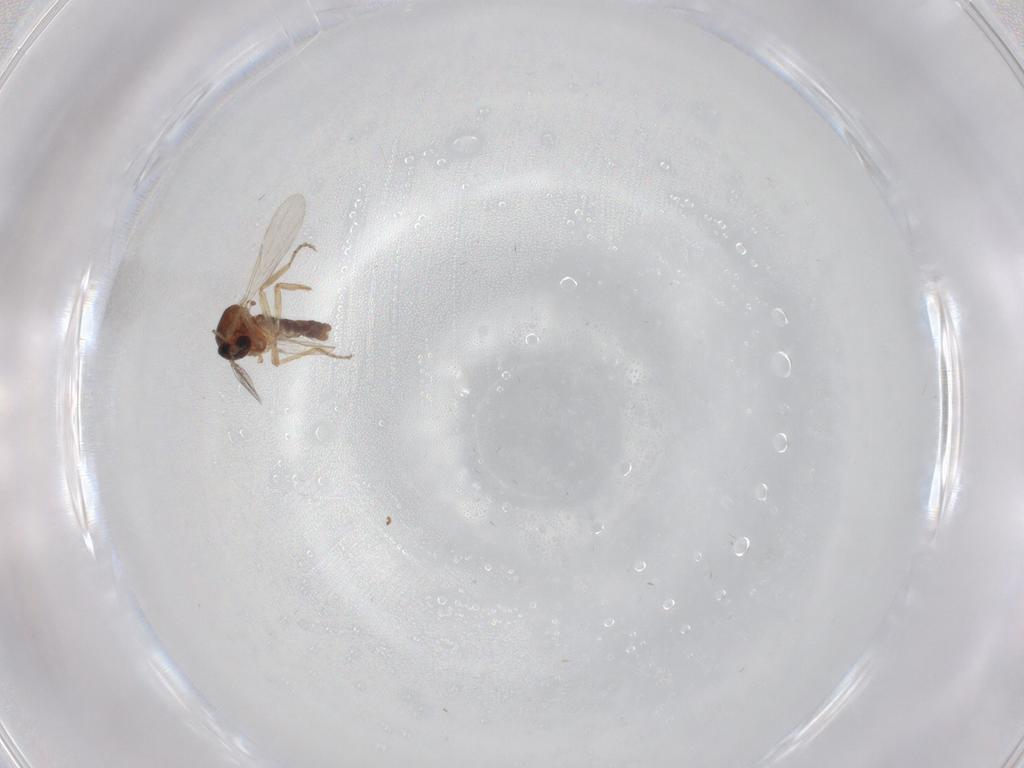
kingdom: Animalia
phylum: Arthropoda
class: Insecta
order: Diptera
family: Ceratopogonidae
